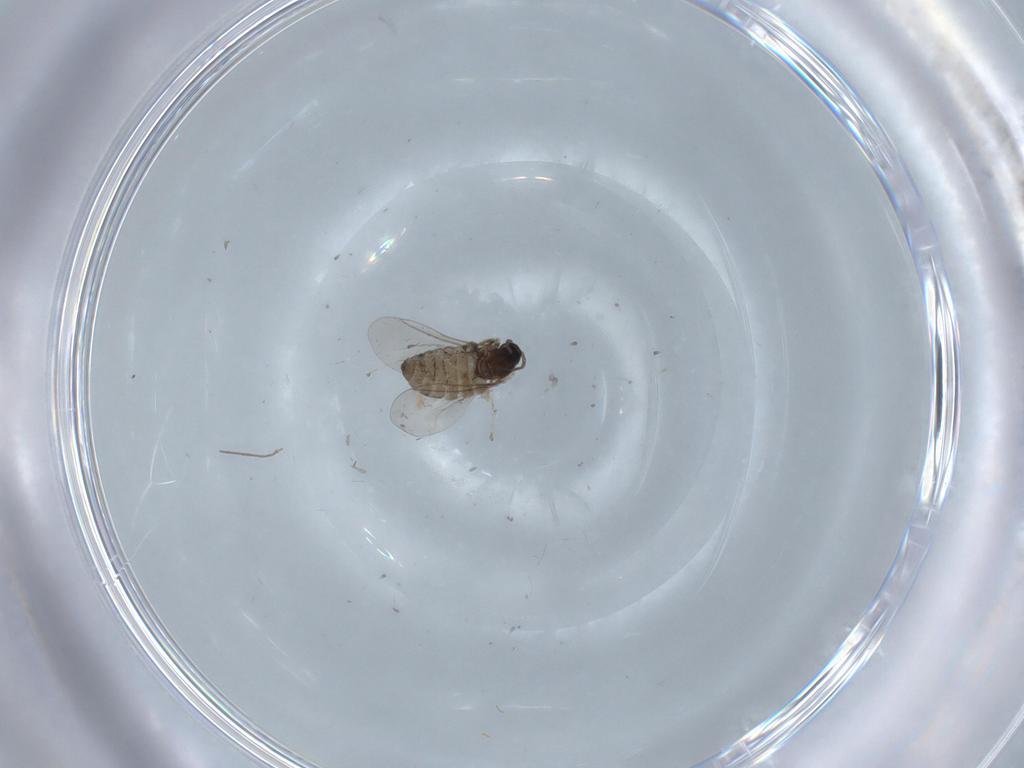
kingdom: Animalia
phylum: Arthropoda
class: Insecta
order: Diptera
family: Cecidomyiidae
